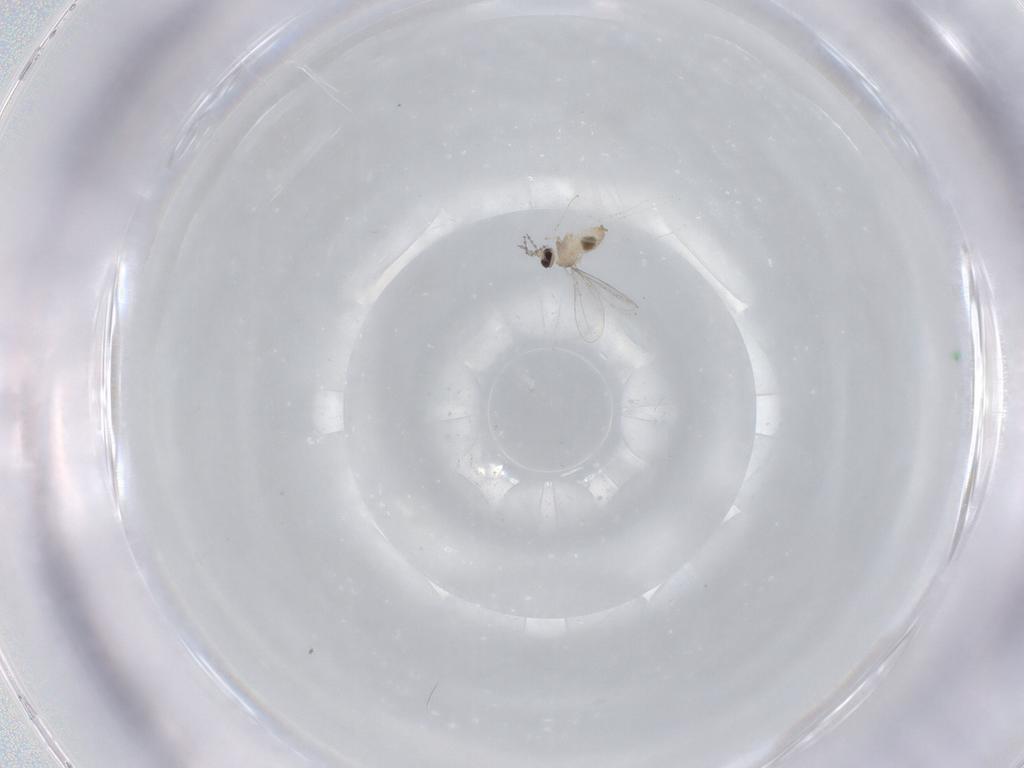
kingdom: Animalia
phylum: Arthropoda
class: Insecta
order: Diptera
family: Cecidomyiidae
